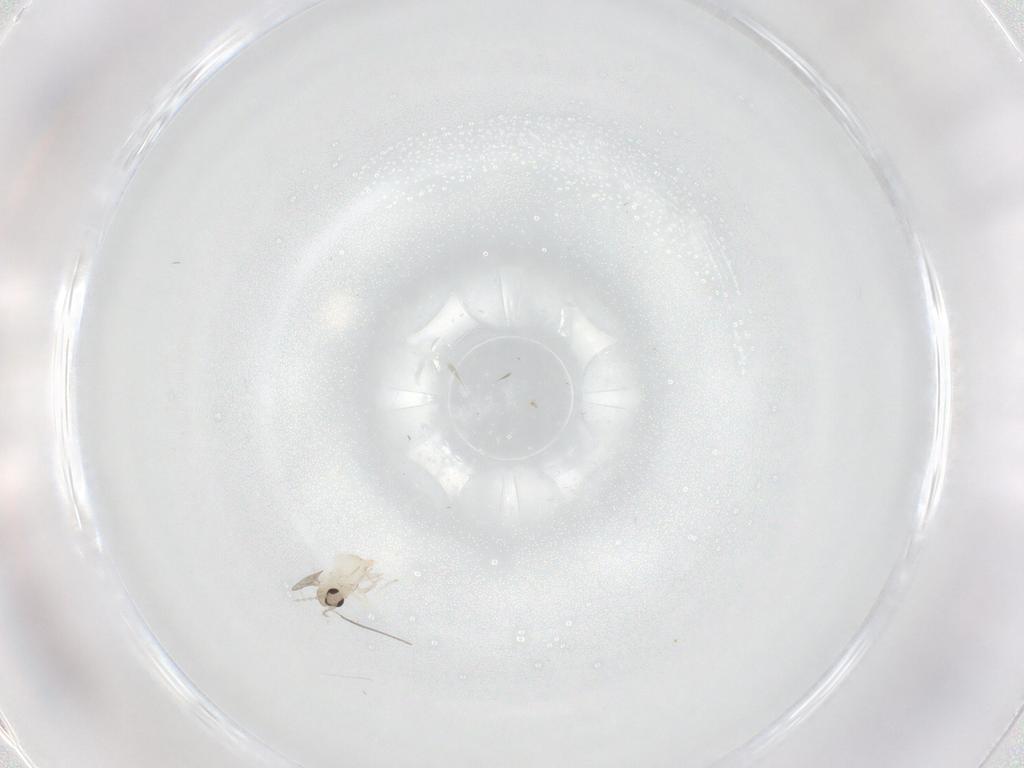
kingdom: Animalia
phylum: Arthropoda
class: Insecta
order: Diptera
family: Cecidomyiidae
